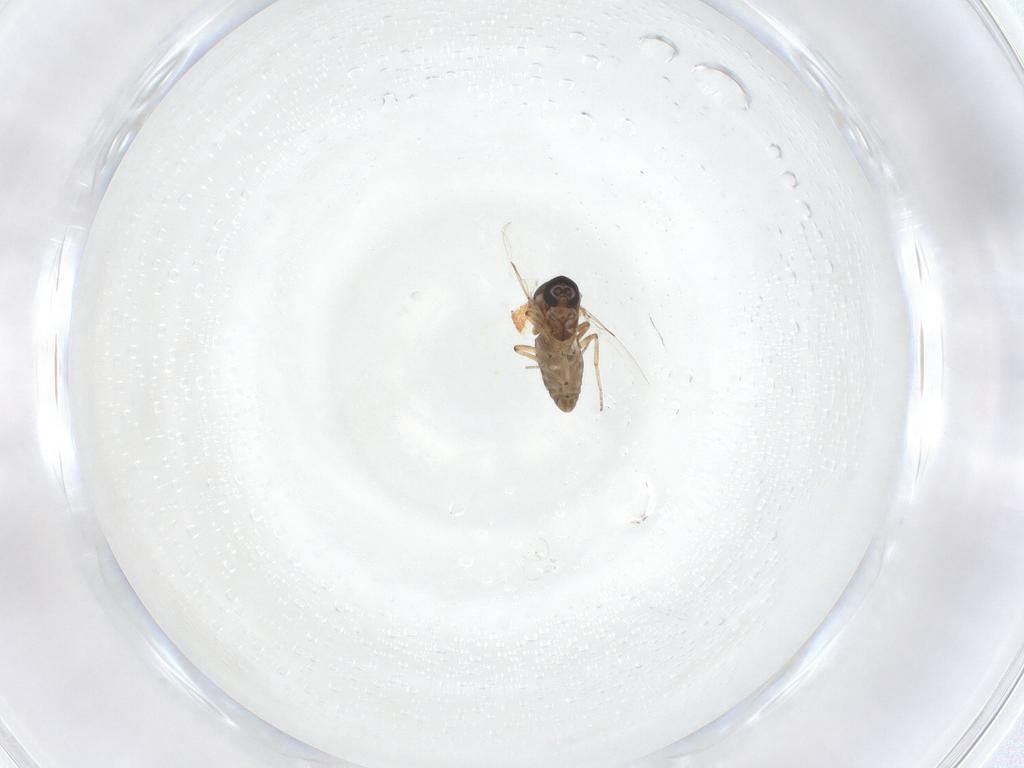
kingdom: Animalia
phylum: Arthropoda
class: Insecta
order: Diptera
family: Ceratopogonidae
